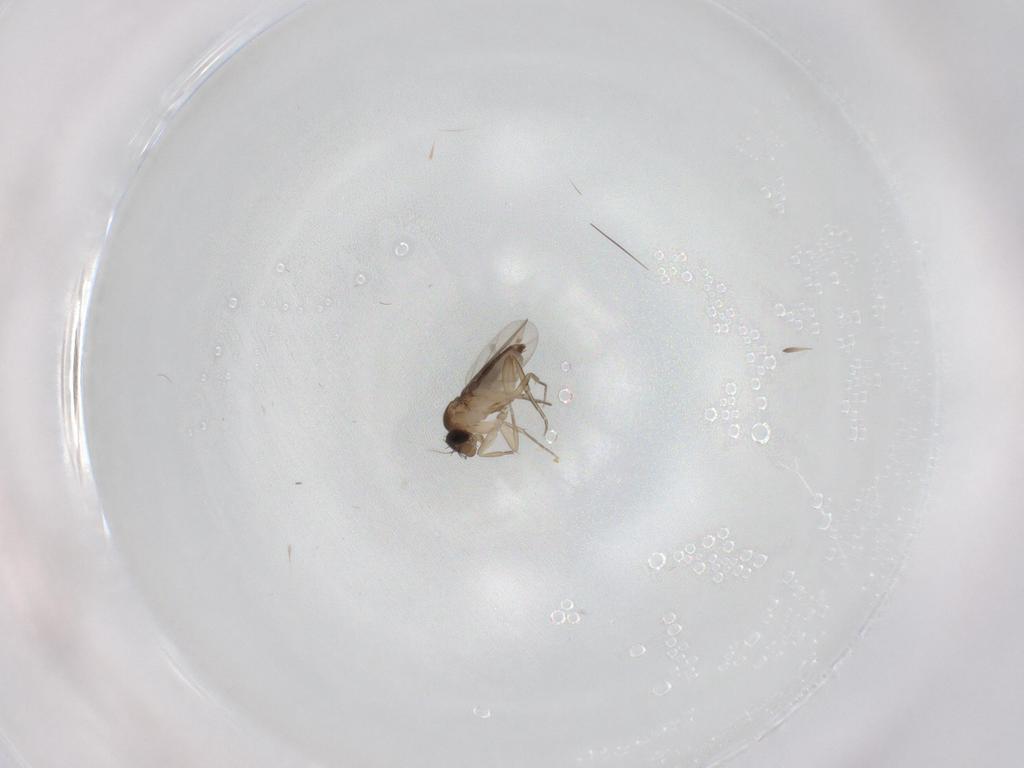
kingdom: Animalia
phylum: Arthropoda
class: Insecta
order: Diptera
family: Phoridae
